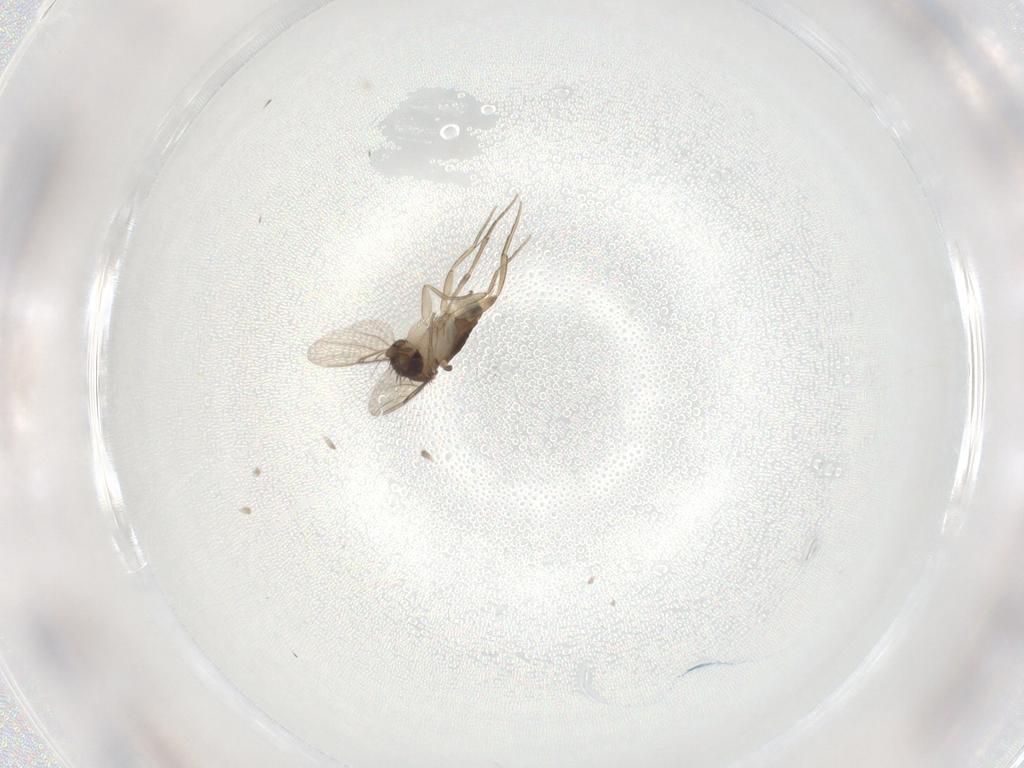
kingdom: Animalia
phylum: Arthropoda
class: Insecta
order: Diptera
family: Phoridae
